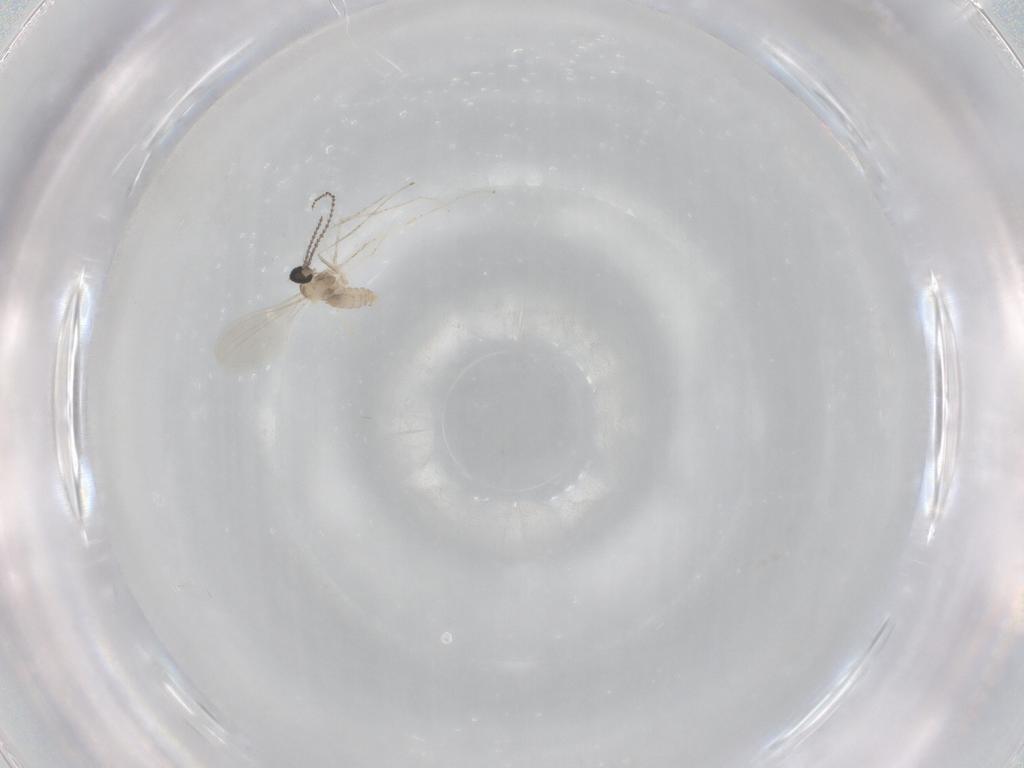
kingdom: Animalia
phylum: Arthropoda
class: Insecta
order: Diptera
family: Cecidomyiidae
